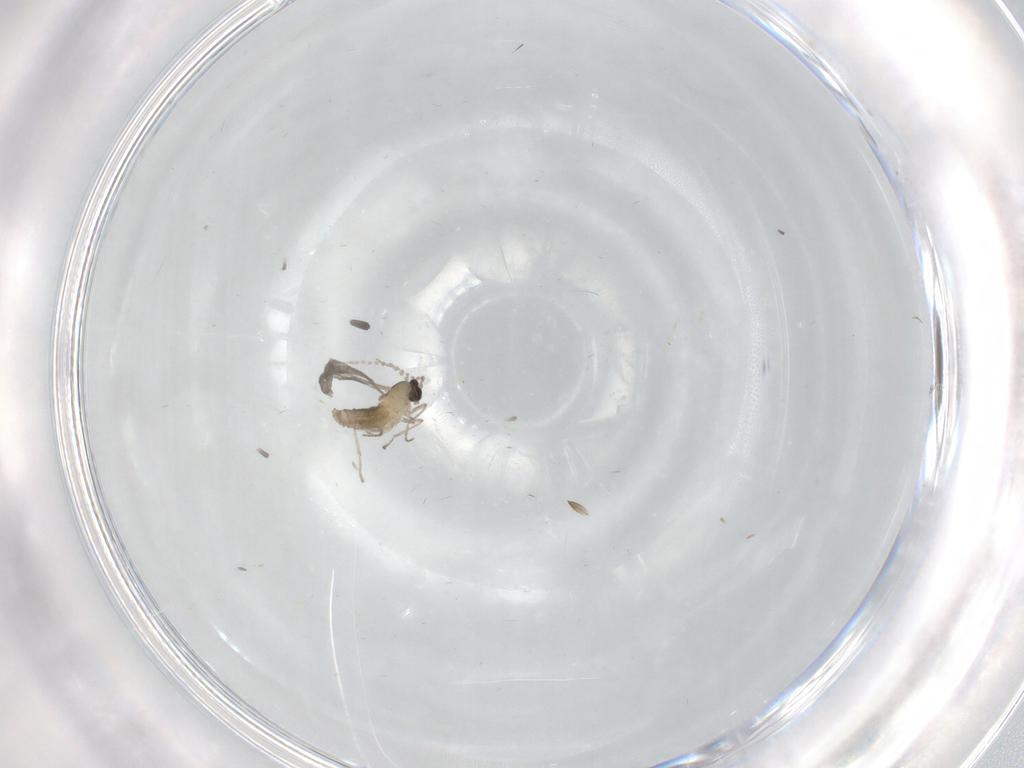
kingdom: Animalia
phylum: Arthropoda
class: Insecta
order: Diptera
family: Cecidomyiidae
